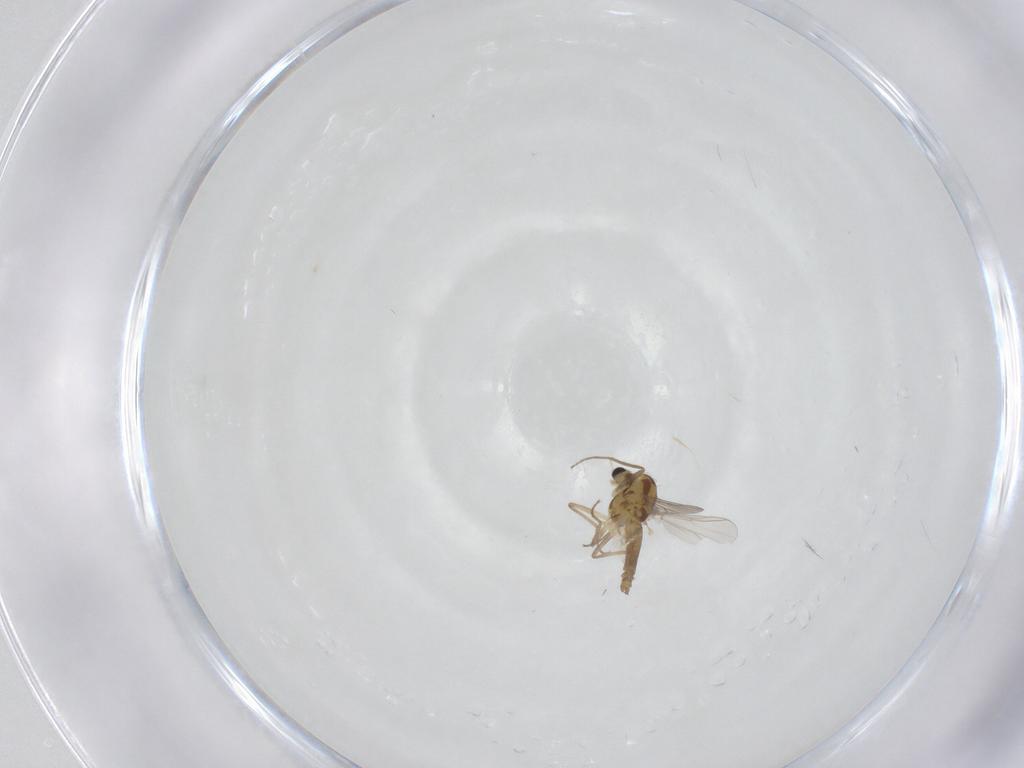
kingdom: Animalia
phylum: Arthropoda
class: Insecta
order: Diptera
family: Chironomidae
